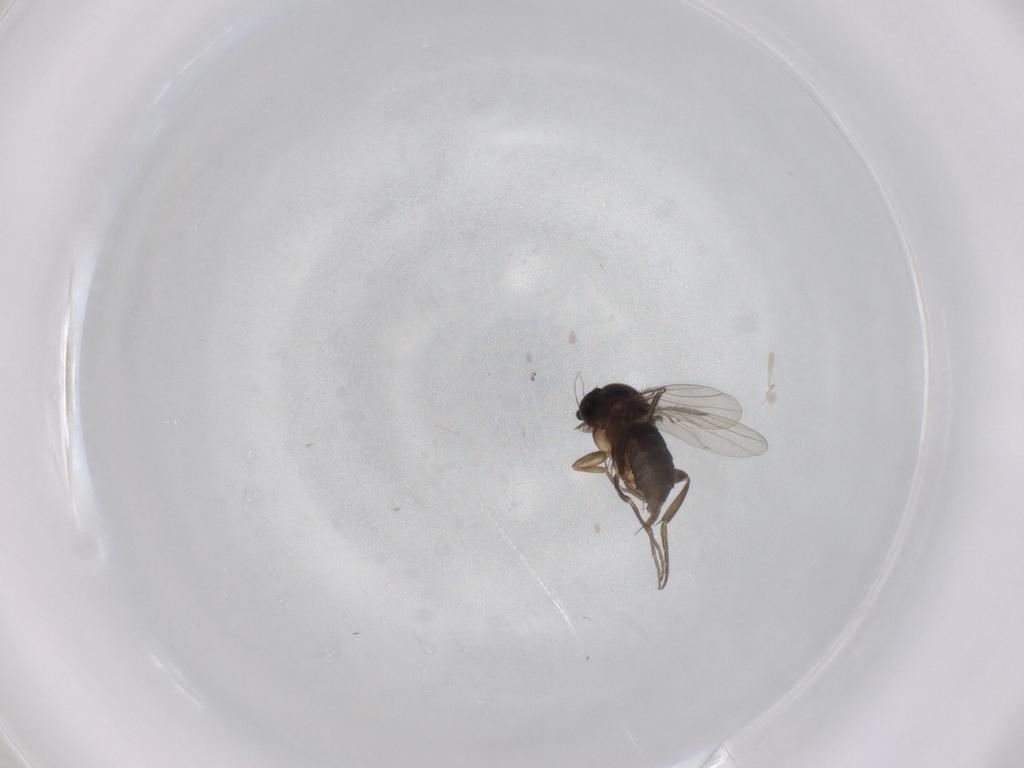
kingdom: Animalia
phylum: Arthropoda
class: Insecta
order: Diptera
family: Phoridae
